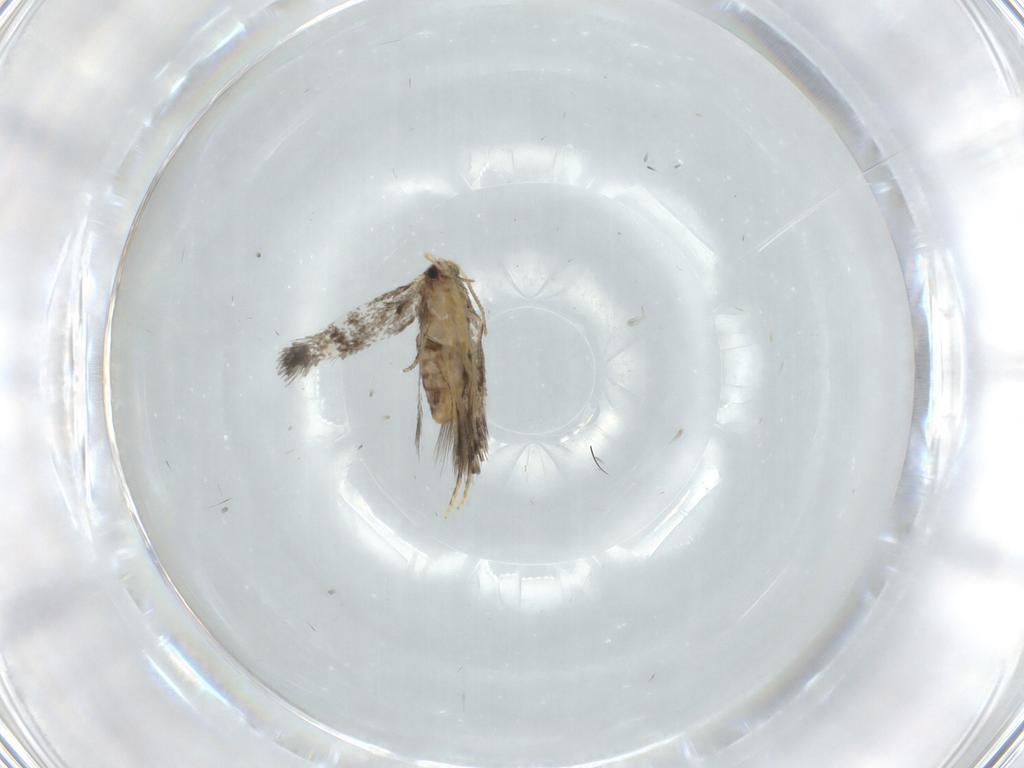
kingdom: Animalia
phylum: Arthropoda
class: Insecta
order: Lepidoptera
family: Nepticulidae
